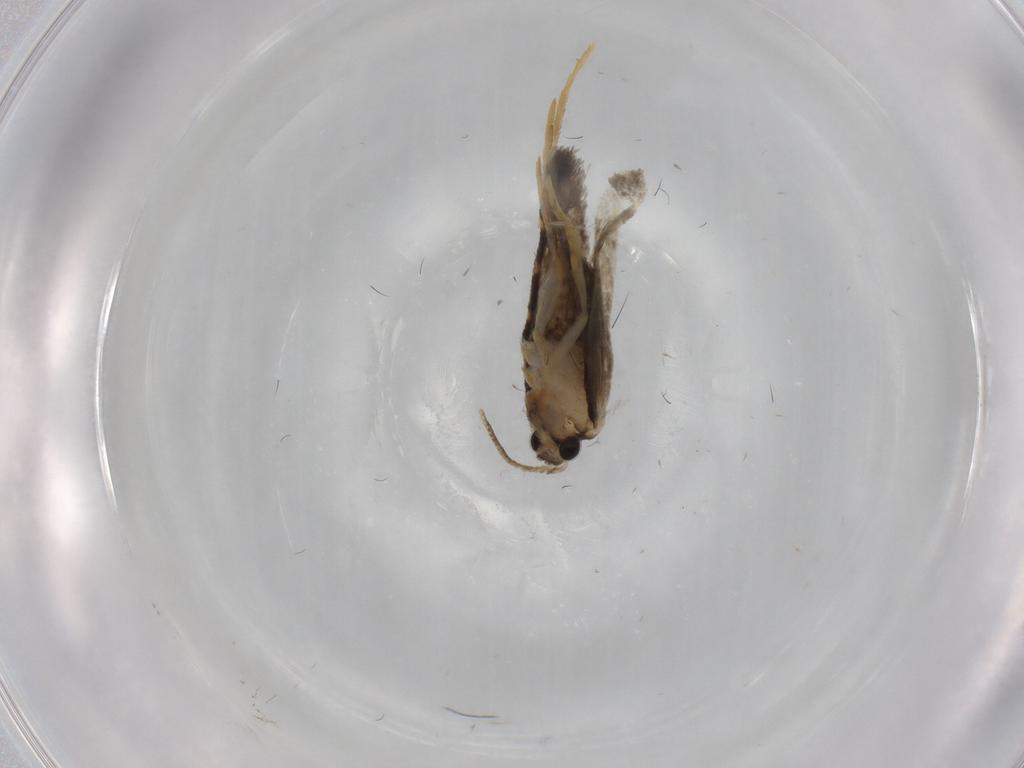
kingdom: Animalia
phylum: Arthropoda
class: Insecta
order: Lepidoptera
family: Psychidae
